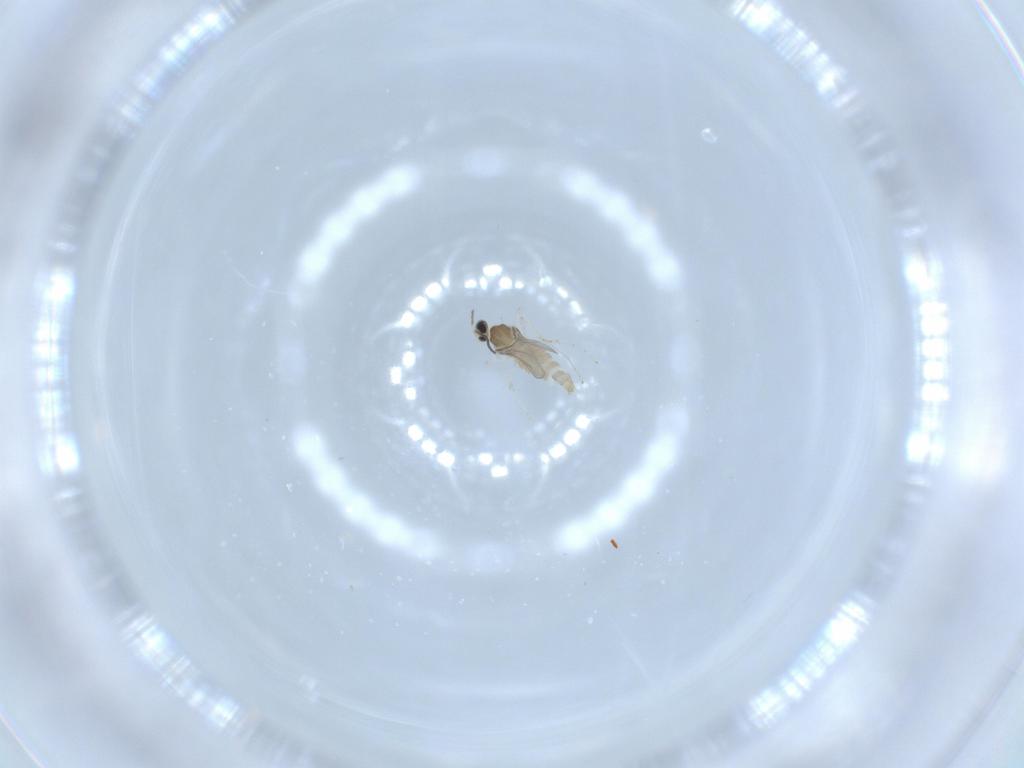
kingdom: Animalia
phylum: Arthropoda
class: Insecta
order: Diptera
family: Cecidomyiidae
